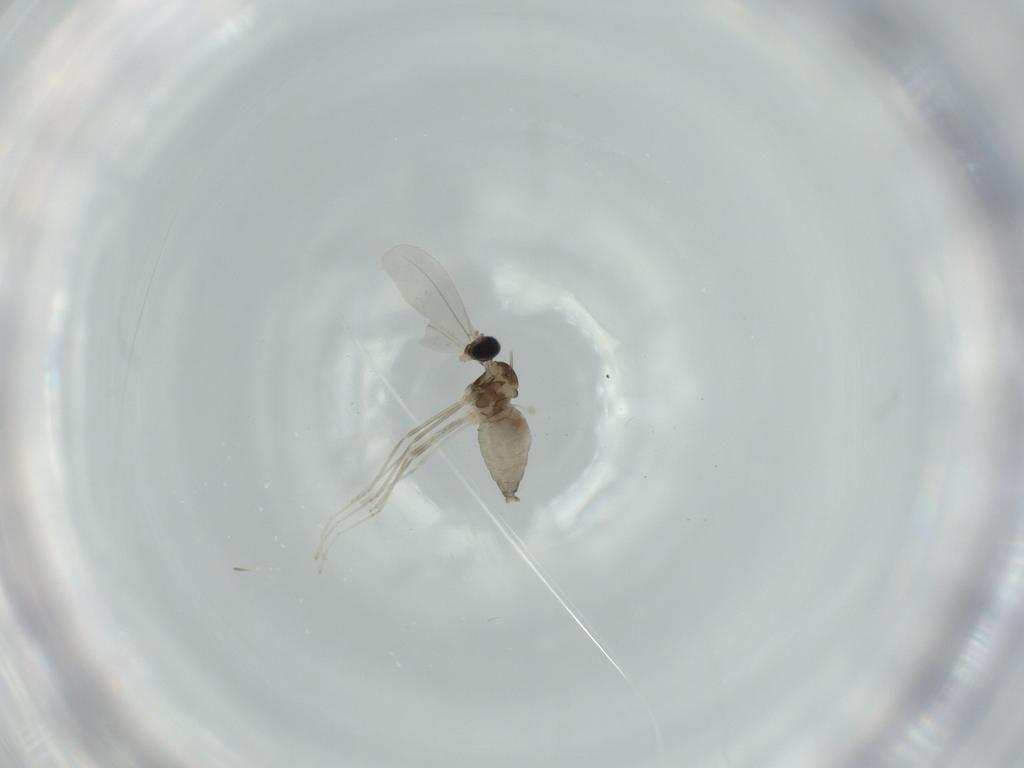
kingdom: Animalia
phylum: Arthropoda
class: Insecta
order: Diptera
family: Cecidomyiidae
